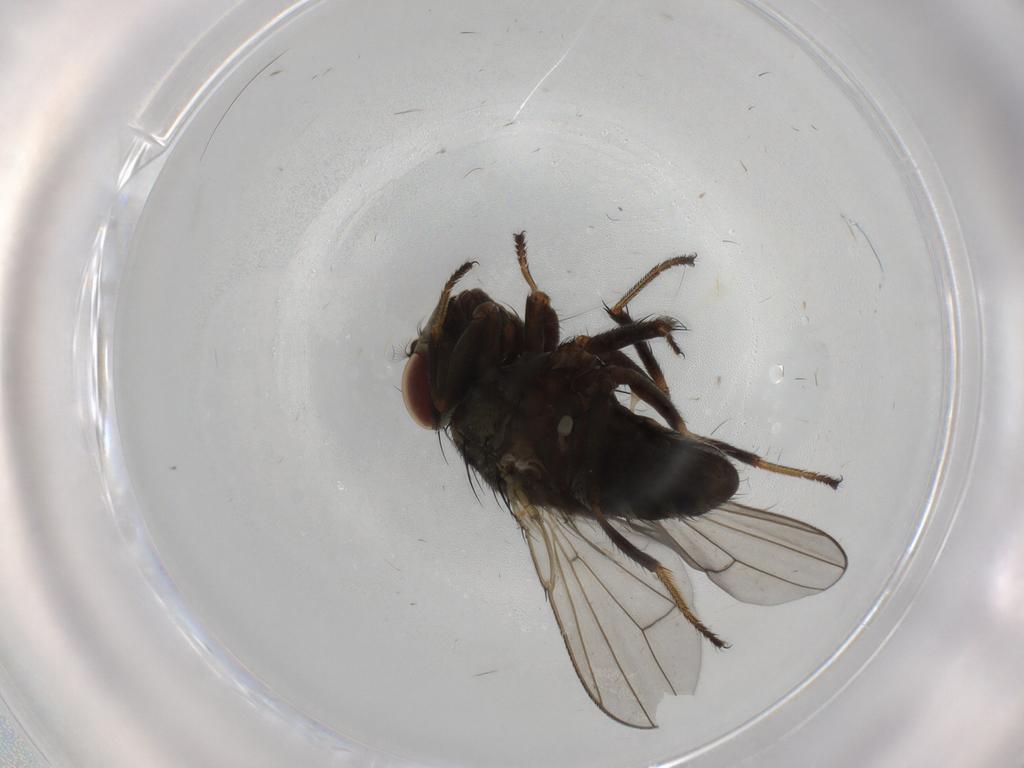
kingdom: Animalia
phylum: Arthropoda
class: Insecta
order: Diptera
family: Ephydridae
